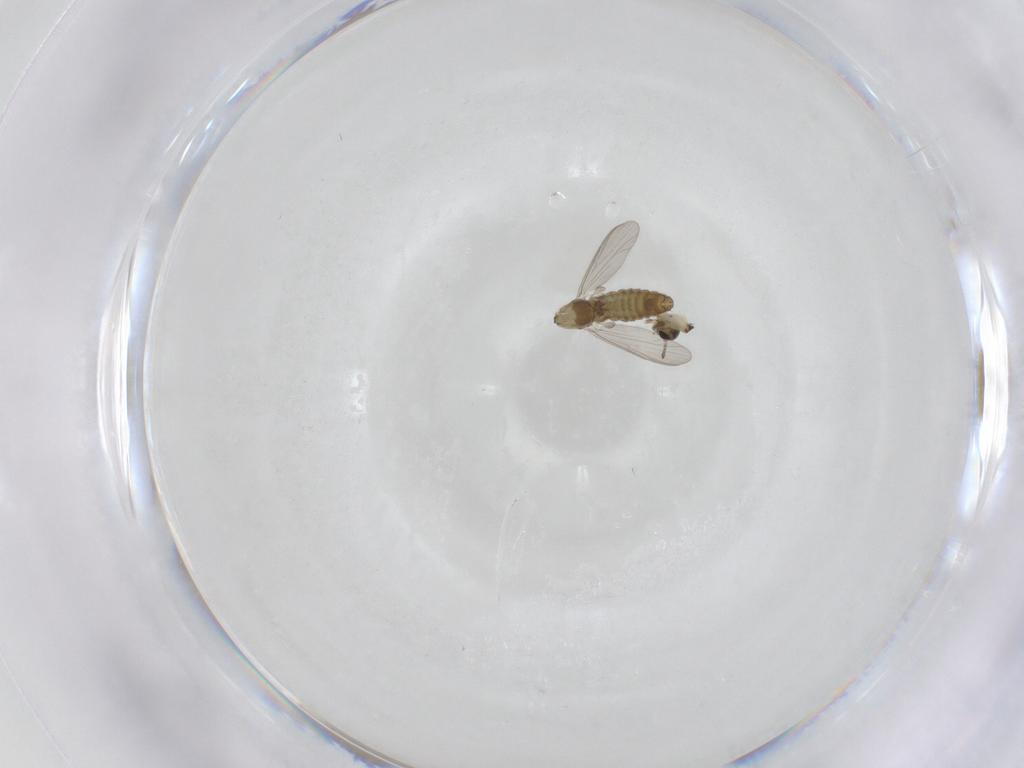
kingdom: Animalia
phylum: Arthropoda
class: Insecta
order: Diptera
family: Chironomidae
